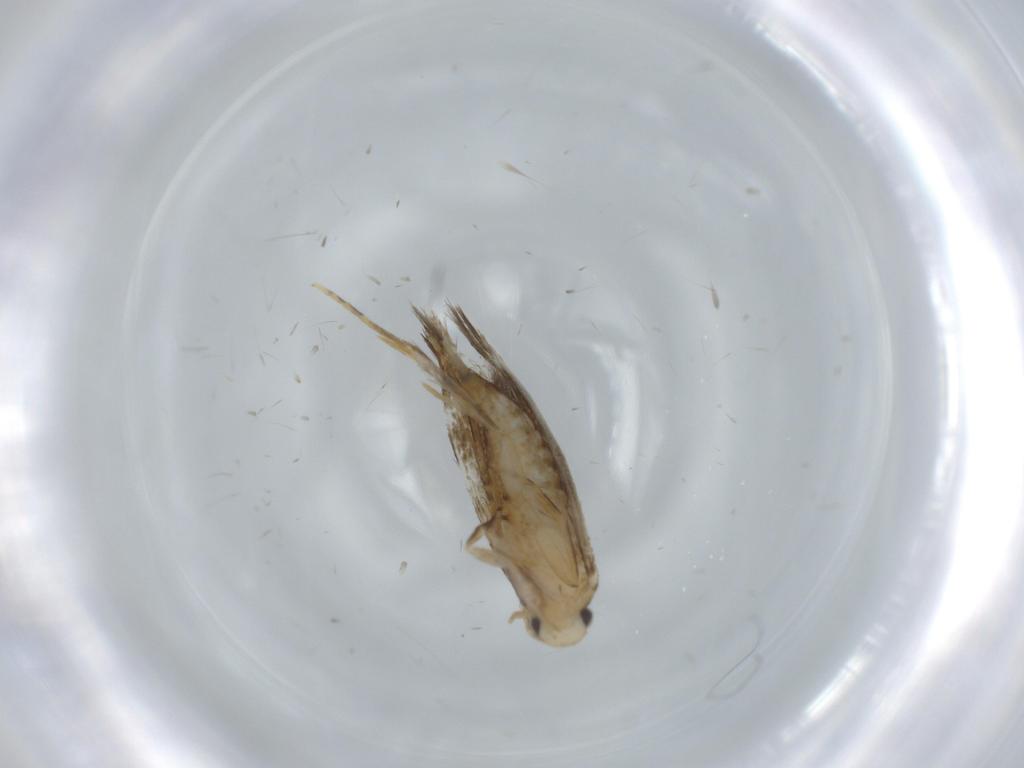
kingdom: Animalia
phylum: Arthropoda
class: Insecta
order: Lepidoptera
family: Tineidae
